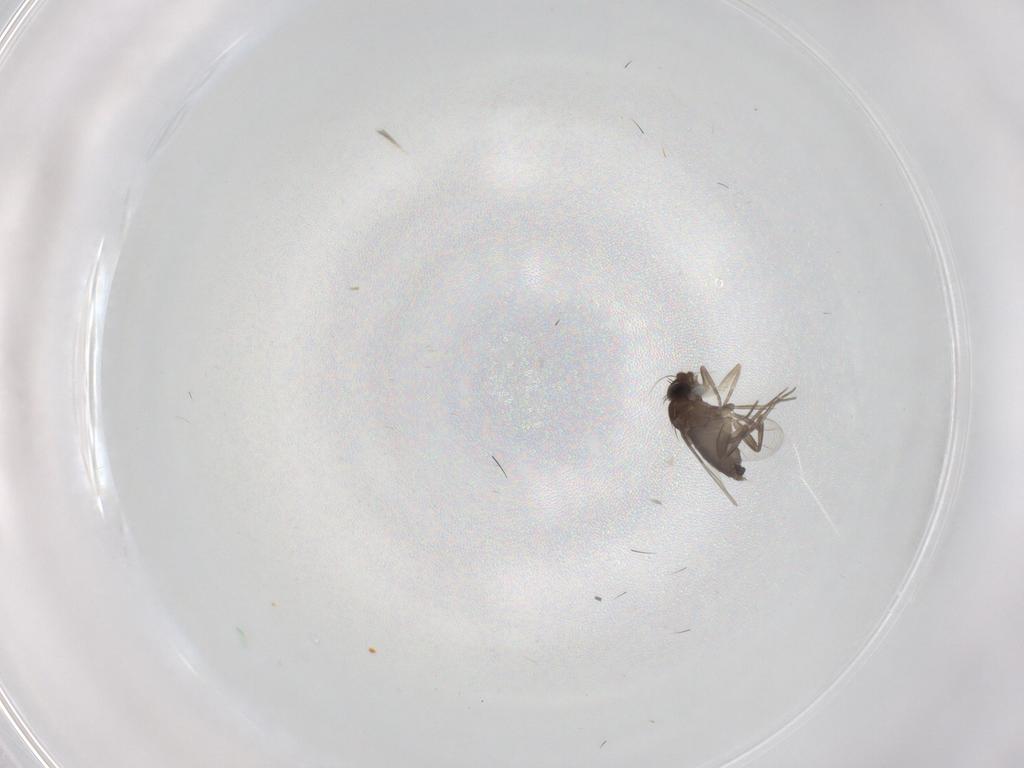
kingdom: Animalia
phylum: Arthropoda
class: Insecta
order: Diptera
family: Phoridae
